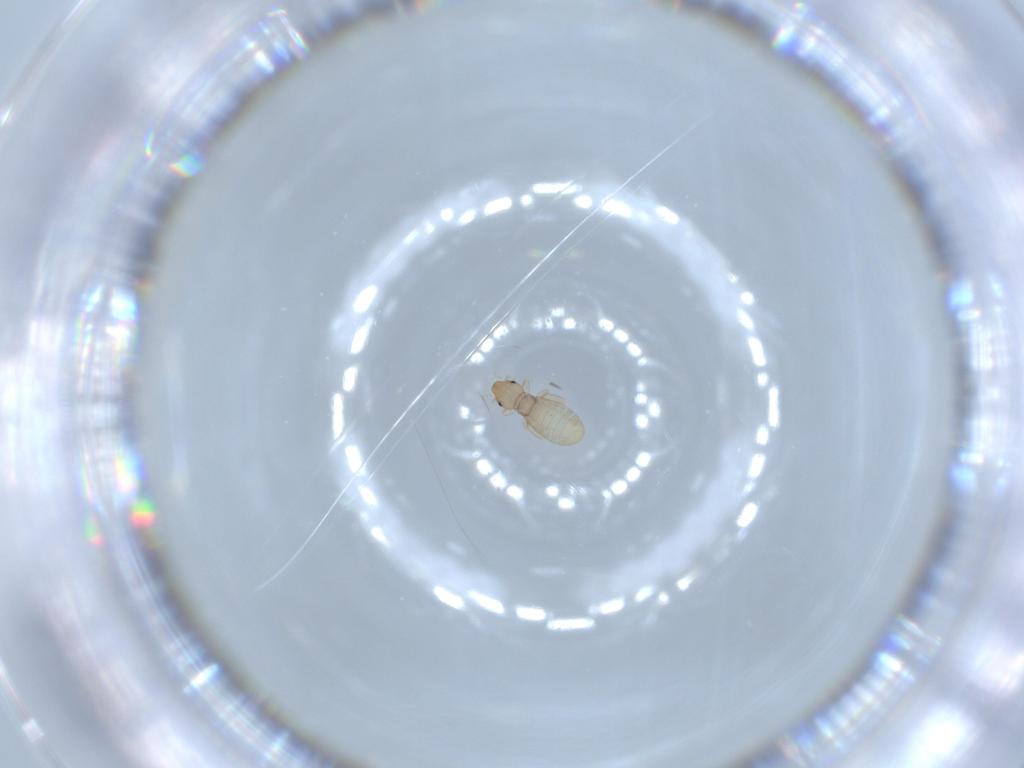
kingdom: Animalia
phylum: Arthropoda
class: Insecta
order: Psocodea
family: Liposcelididae
